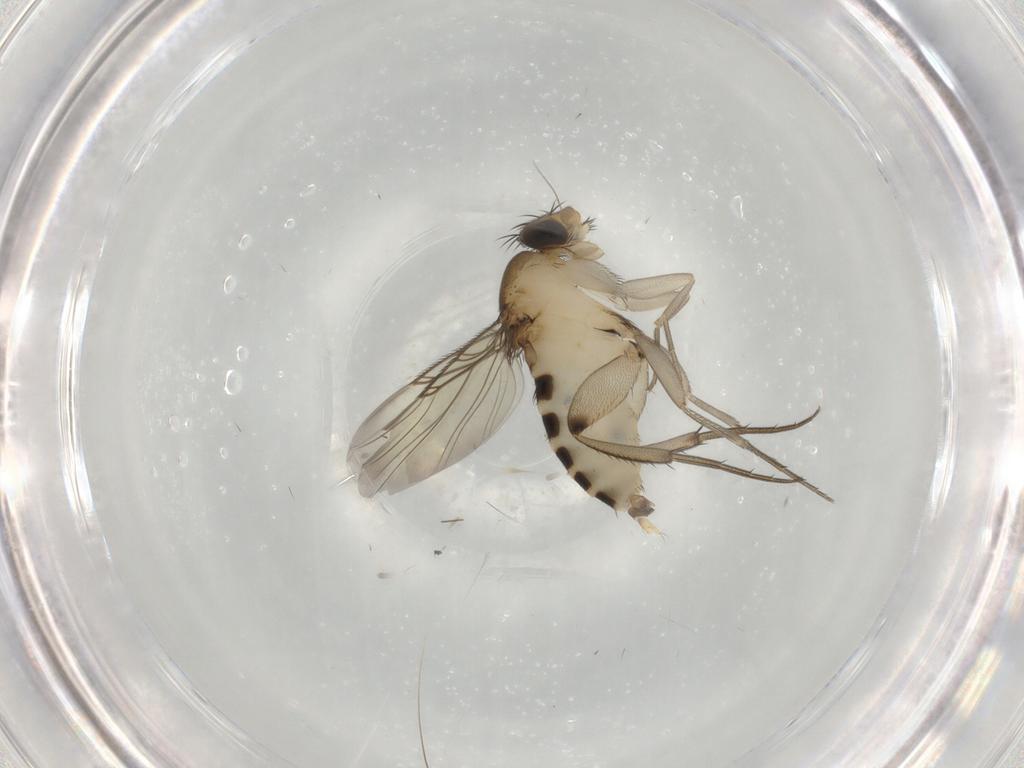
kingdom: Animalia
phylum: Arthropoda
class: Insecta
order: Diptera
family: Phoridae
